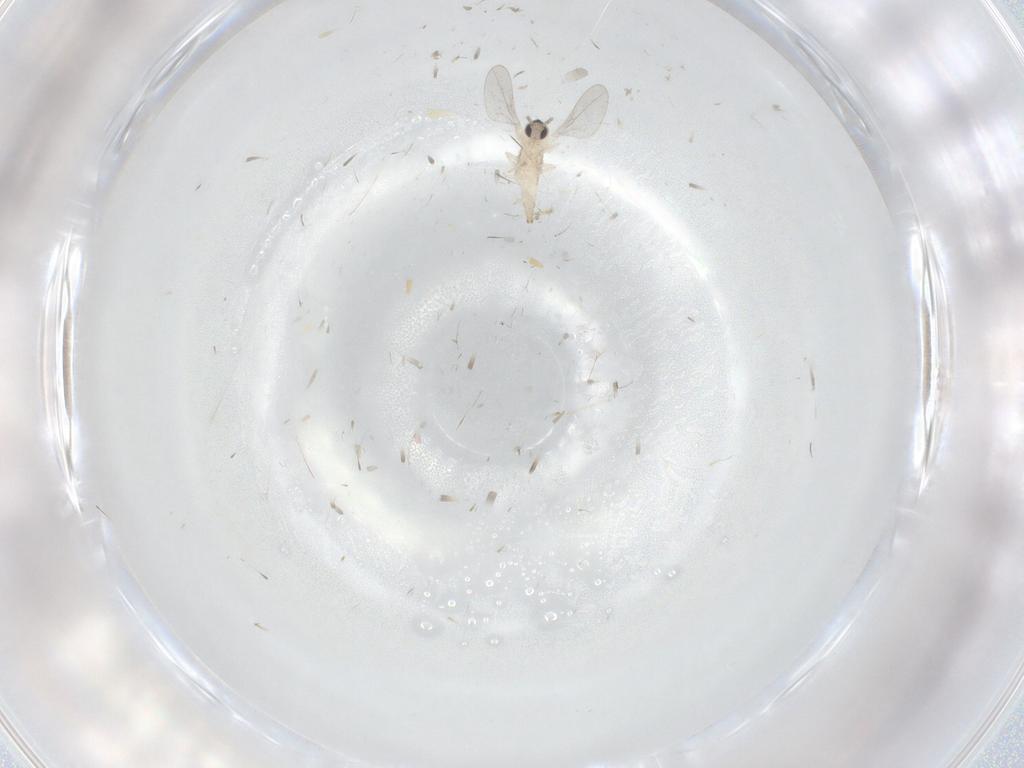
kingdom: Animalia
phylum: Arthropoda
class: Insecta
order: Diptera
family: Cecidomyiidae
